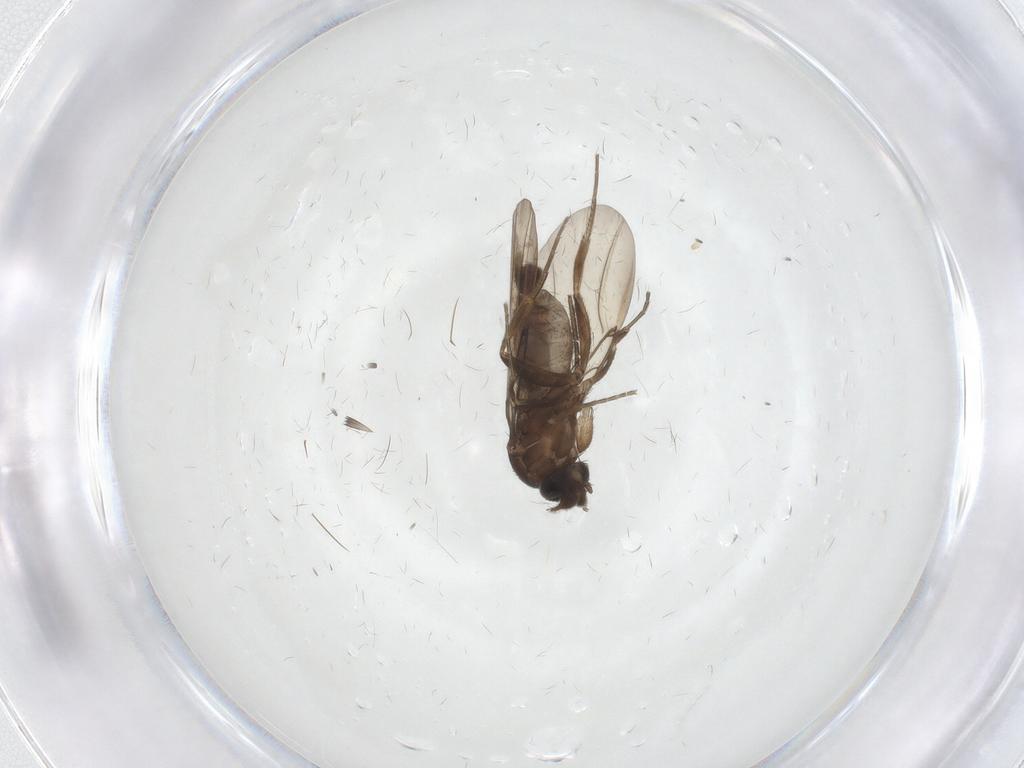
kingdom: Animalia
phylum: Arthropoda
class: Insecta
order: Diptera
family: Phoridae
